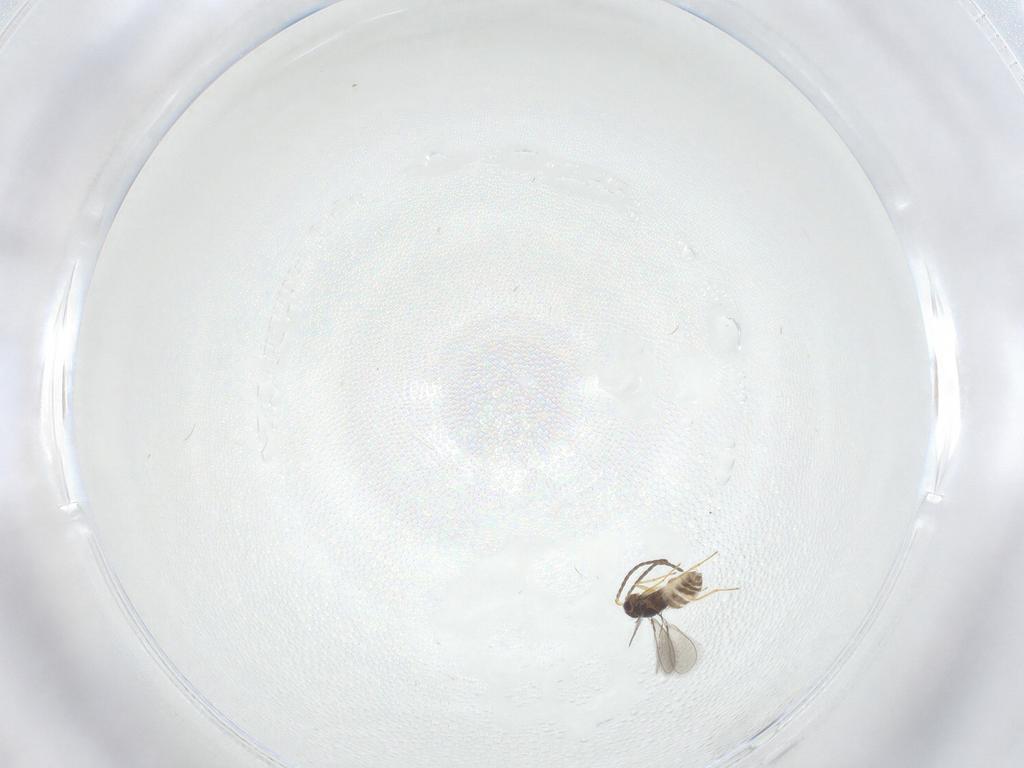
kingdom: Animalia
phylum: Arthropoda
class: Insecta
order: Hymenoptera
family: Mymaridae
